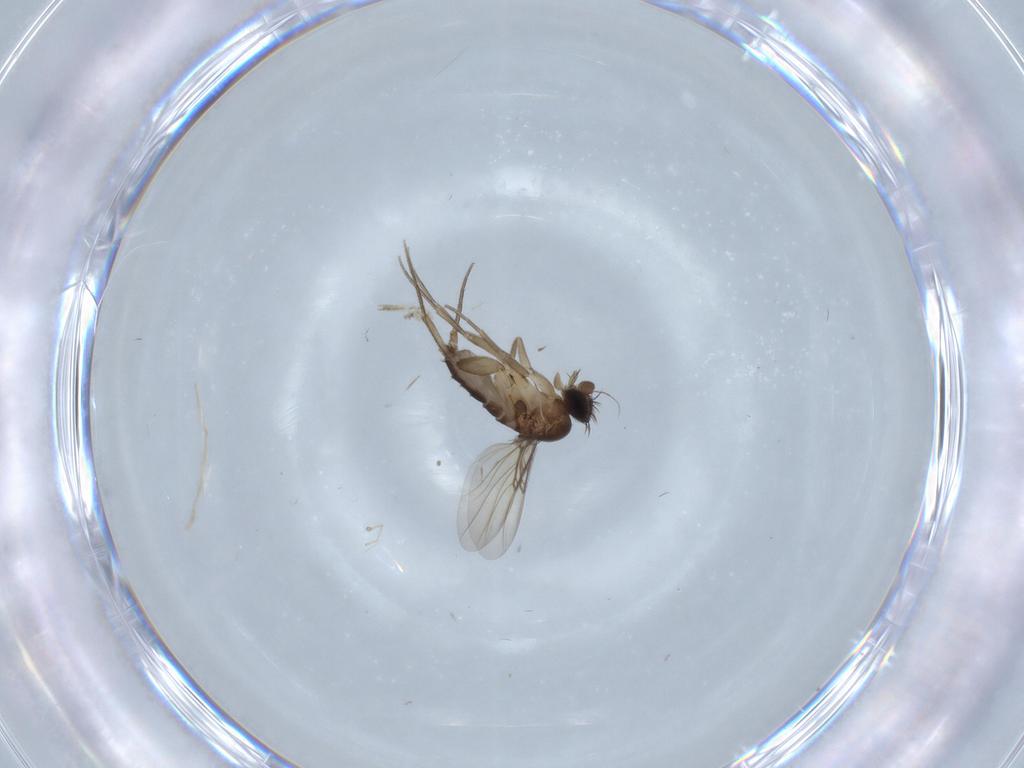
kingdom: Animalia
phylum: Arthropoda
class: Insecta
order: Diptera
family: Phoridae
